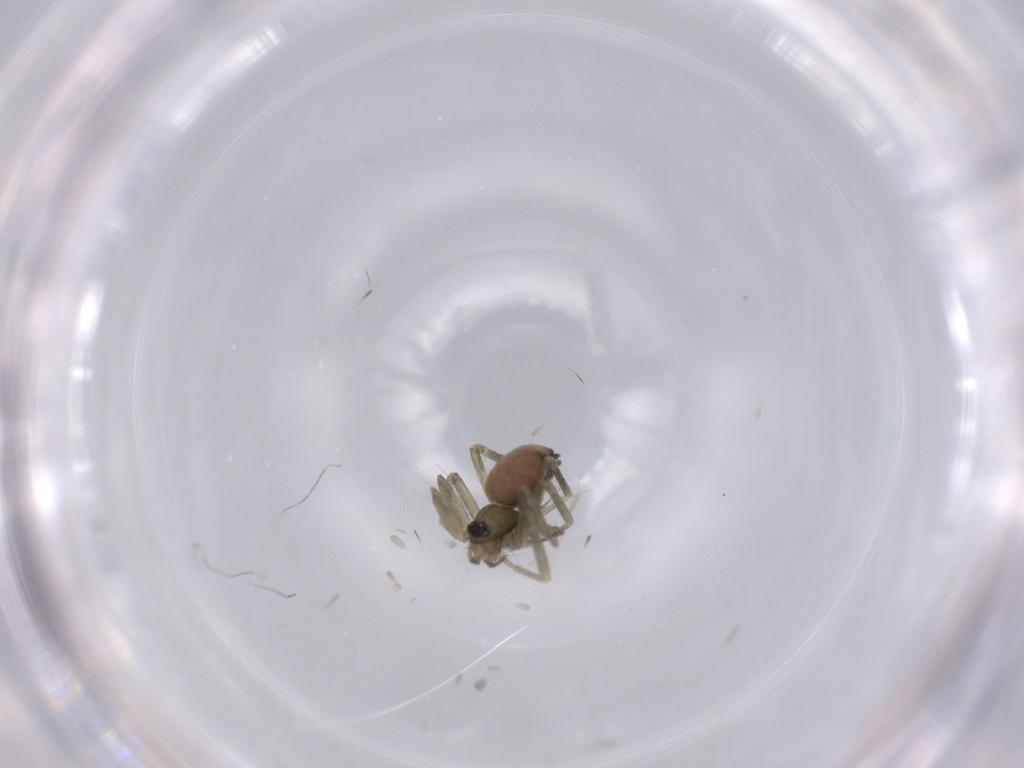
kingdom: Animalia
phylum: Arthropoda
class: Arachnida
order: Araneae
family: Linyphiidae
